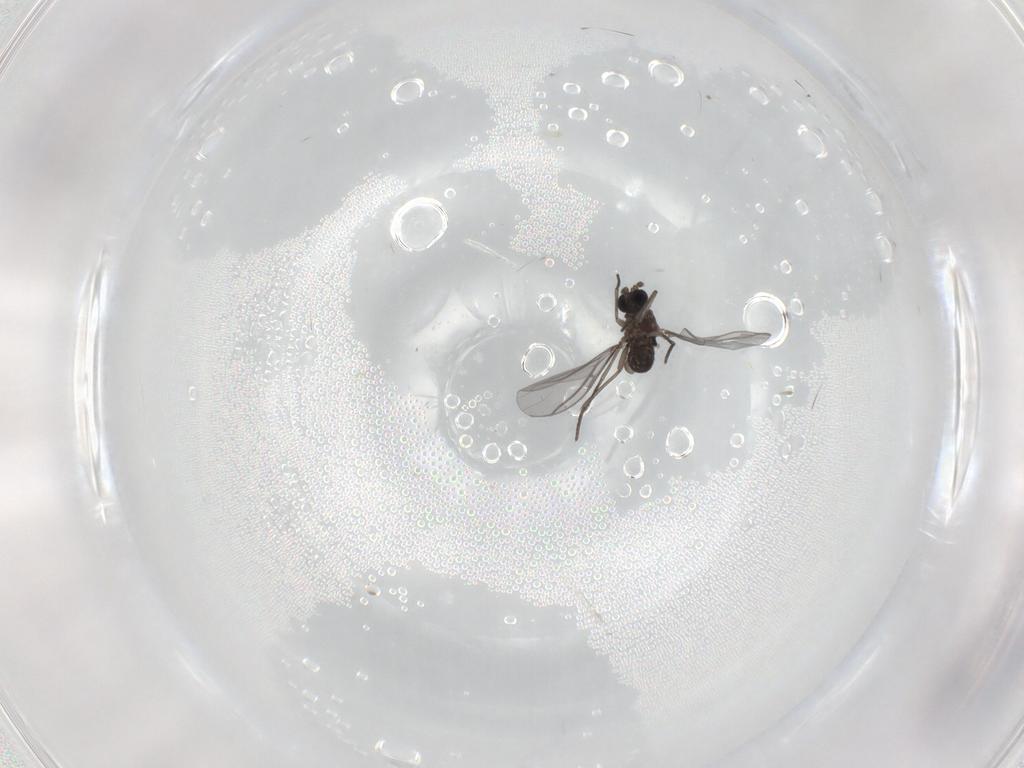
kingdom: Animalia
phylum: Arthropoda
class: Insecta
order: Diptera
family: Sciaridae
